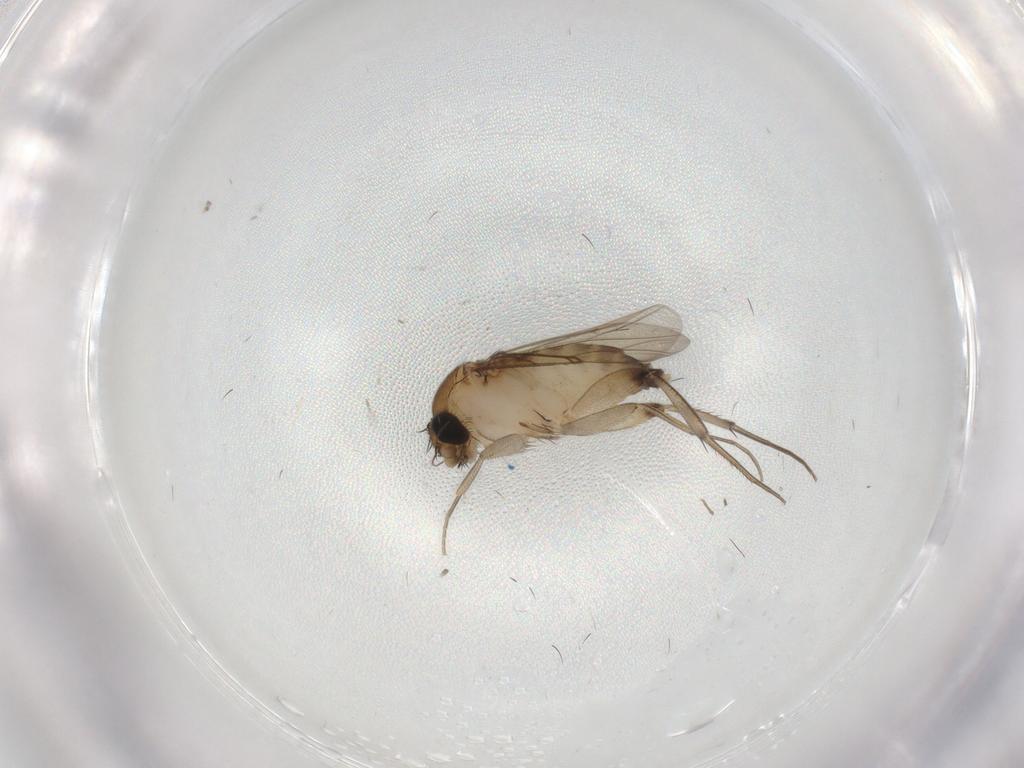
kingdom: Animalia
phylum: Arthropoda
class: Insecta
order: Diptera
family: Phoridae
